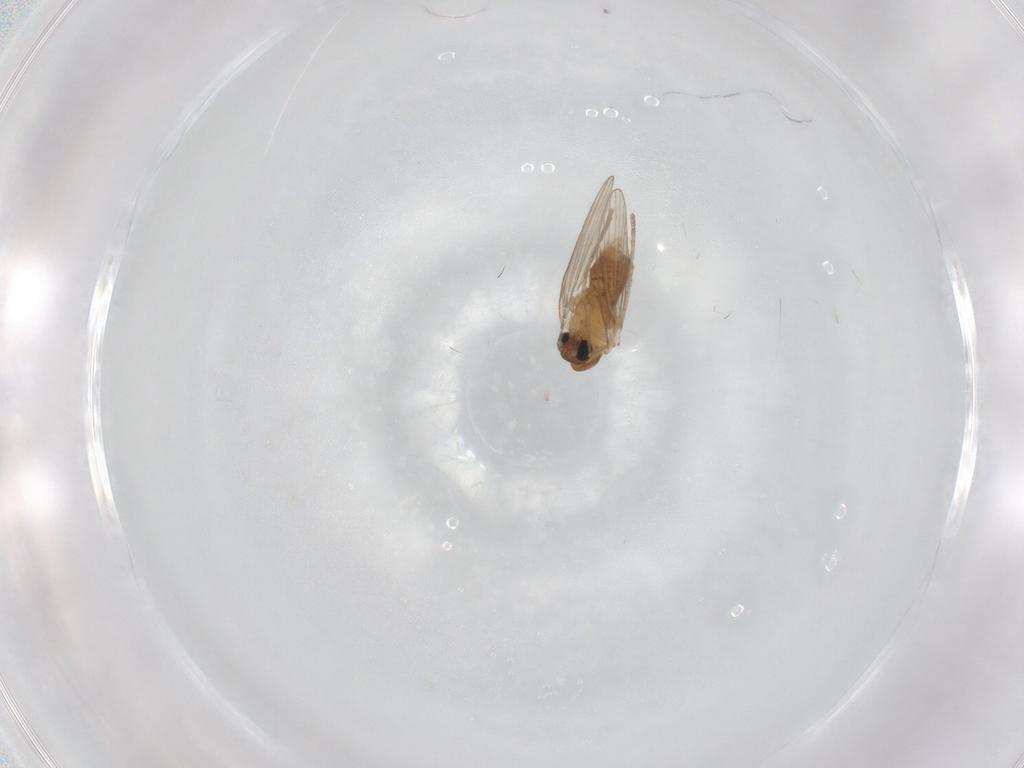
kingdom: Animalia
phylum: Arthropoda
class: Insecta
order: Diptera
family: Psychodidae
